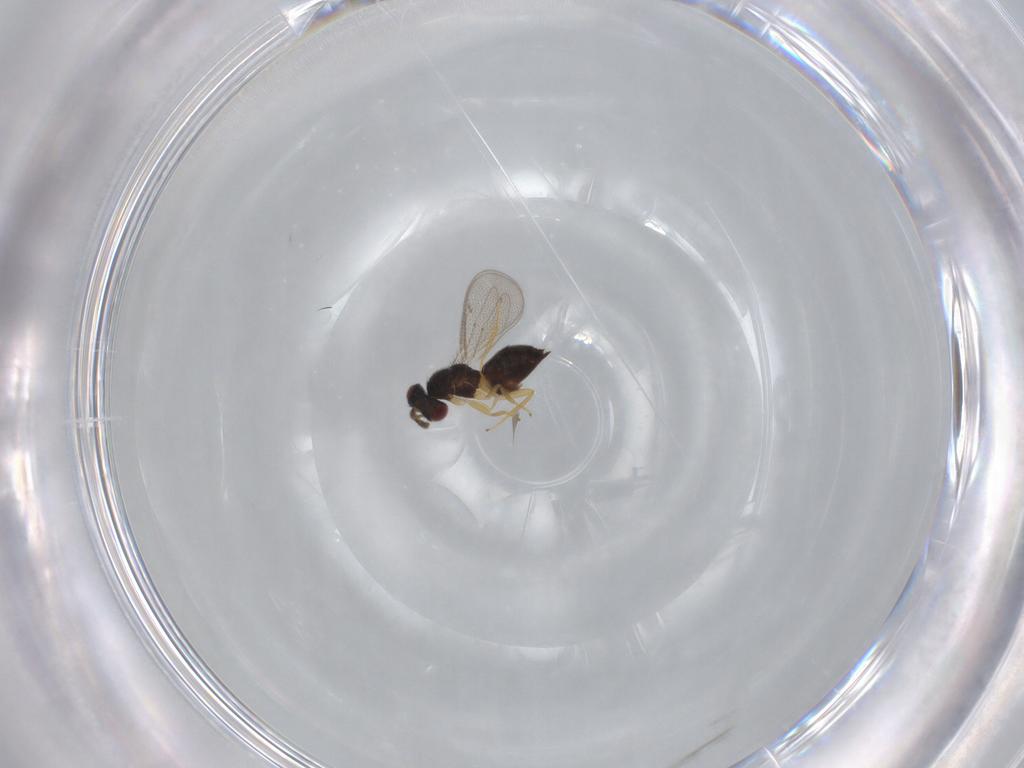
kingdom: Animalia
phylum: Arthropoda
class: Insecta
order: Hymenoptera
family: Eulophidae
